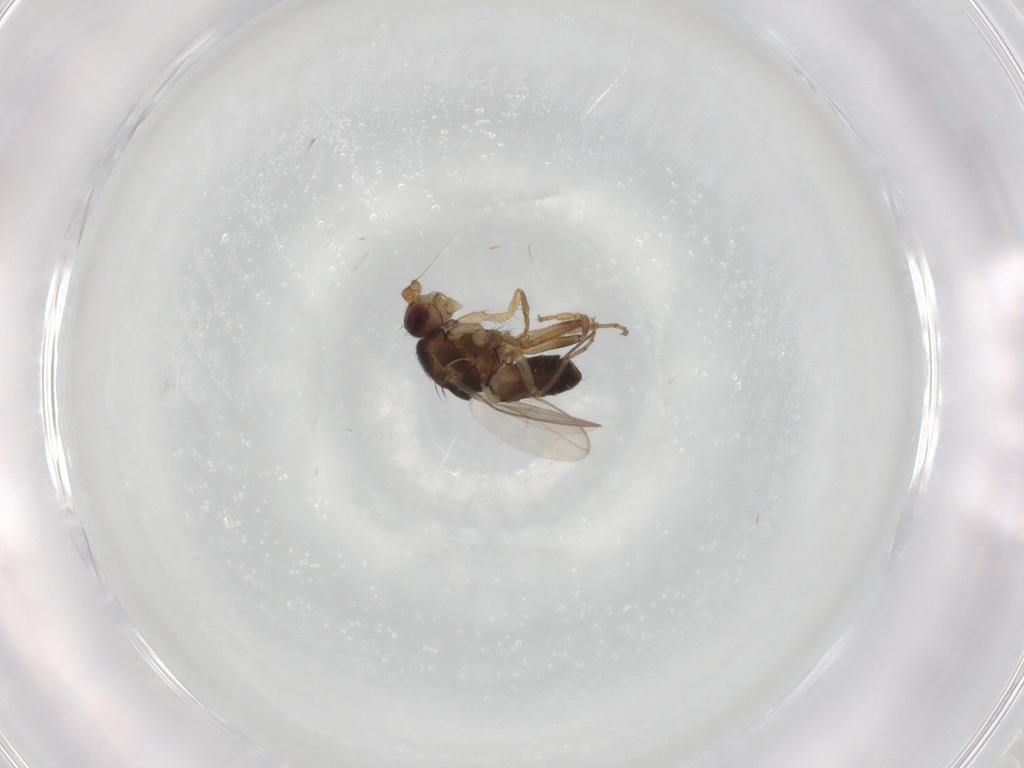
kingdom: Animalia
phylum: Arthropoda
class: Insecta
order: Diptera
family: Sciaridae
